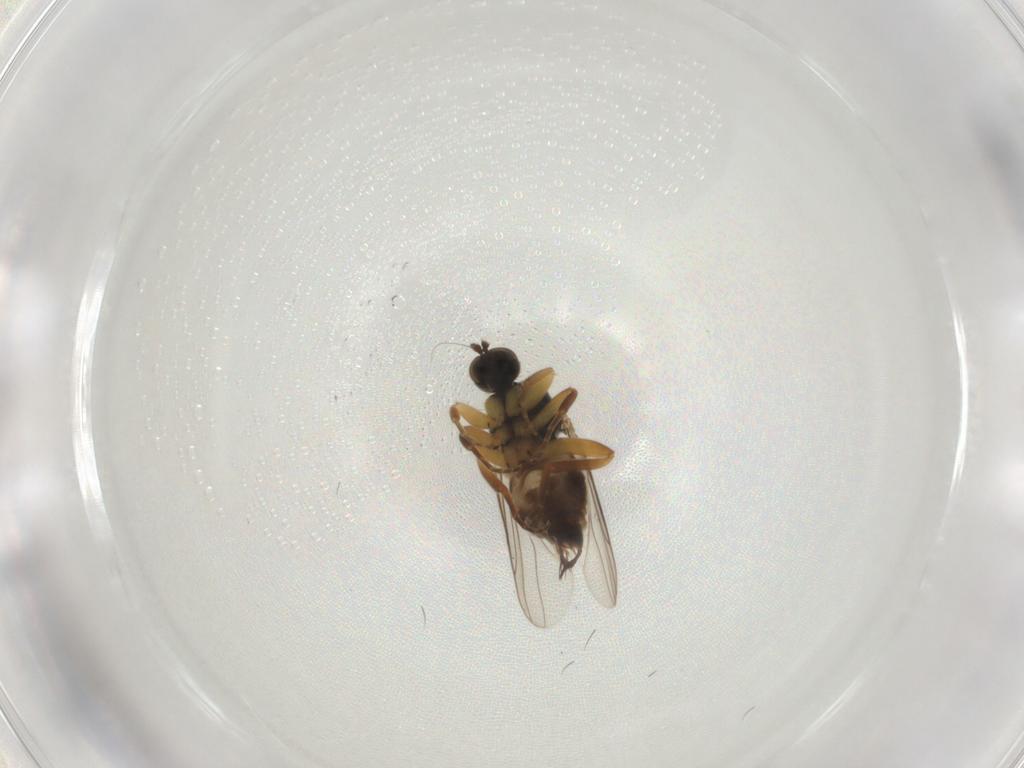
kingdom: Animalia
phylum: Arthropoda
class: Insecta
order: Diptera
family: Hybotidae
